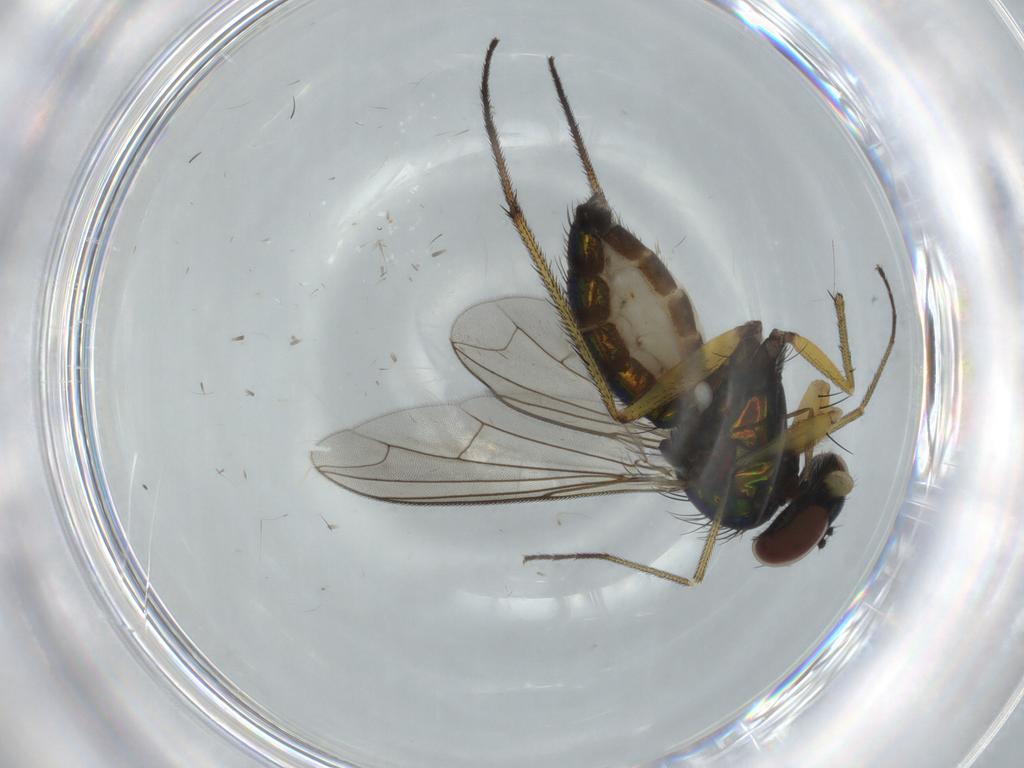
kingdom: Animalia
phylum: Arthropoda
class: Insecta
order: Diptera
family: Dolichopodidae
